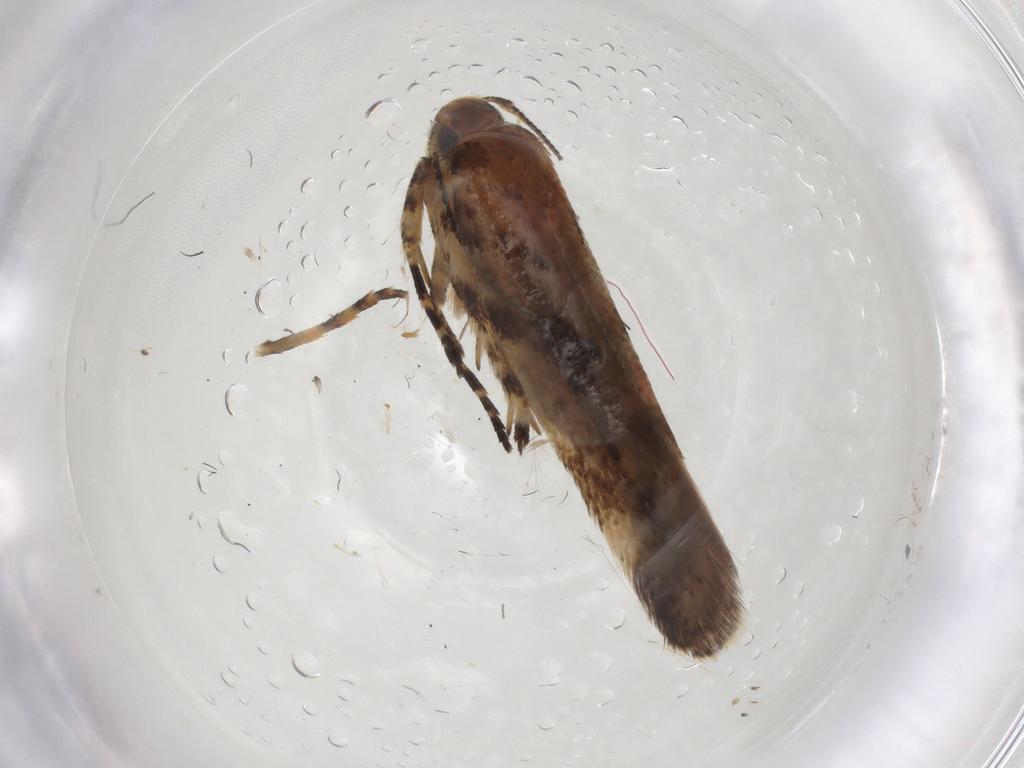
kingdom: Animalia
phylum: Arthropoda
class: Insecta
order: Lepidoptera
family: Gelechiidae
